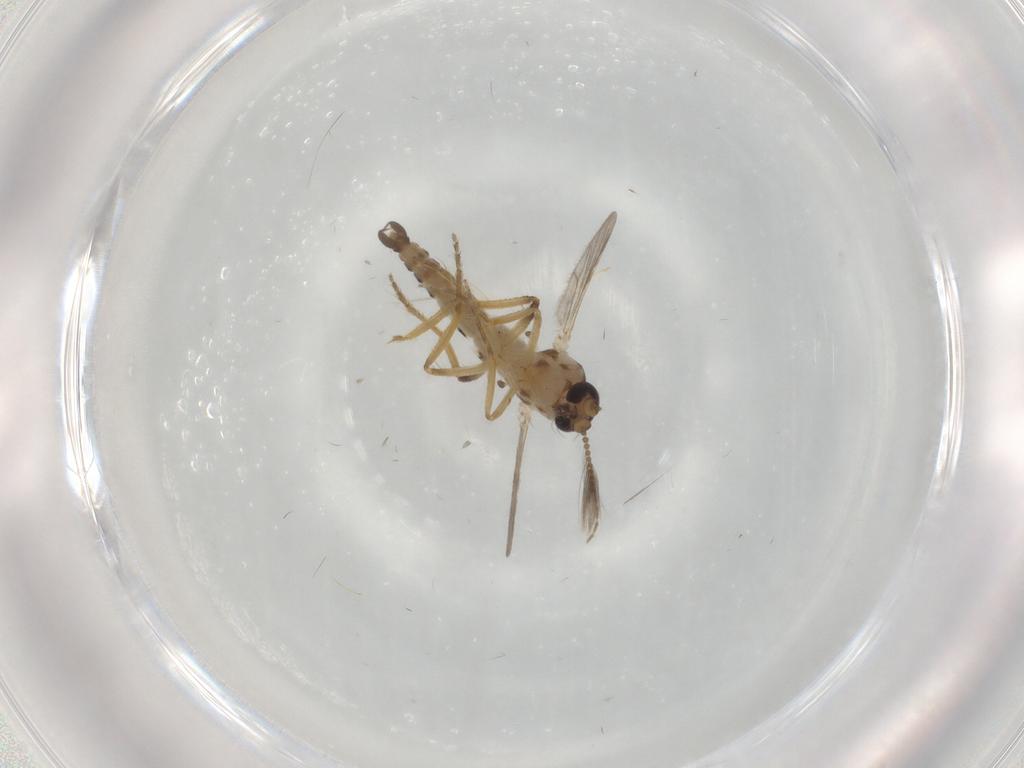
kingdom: Animalia
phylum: Arthropoda
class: Insecta
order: Diptera
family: Ceratopogonidae
